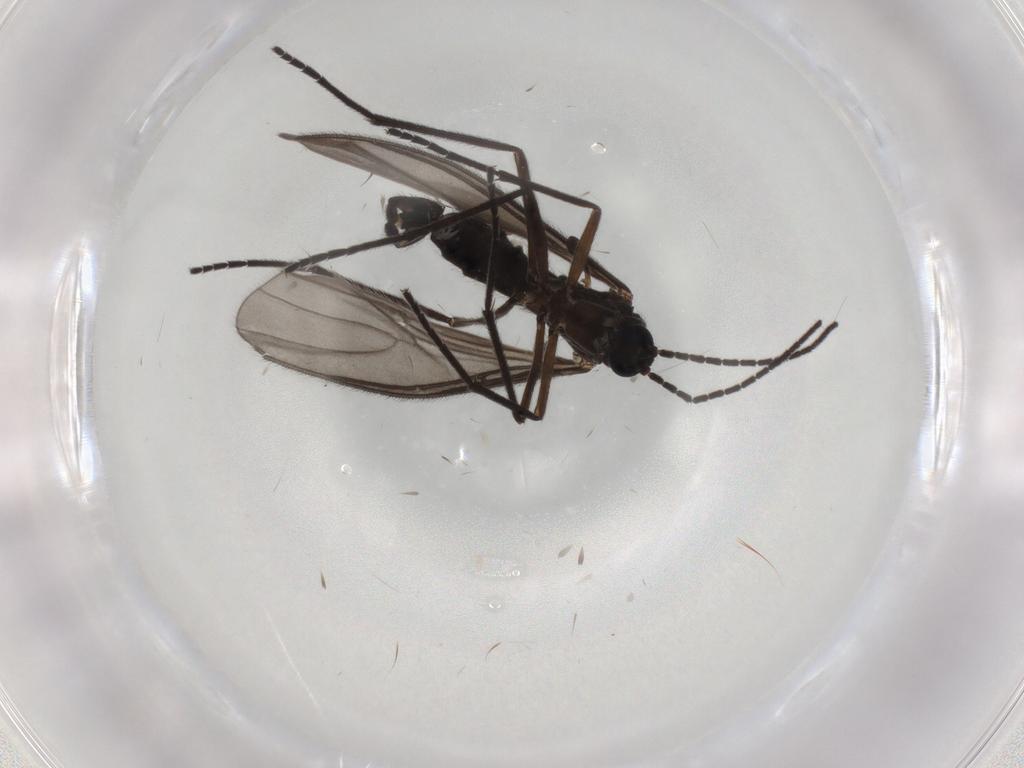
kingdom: Animalia
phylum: Arthropoda
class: Insecta
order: Diptera
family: Sciaridae
